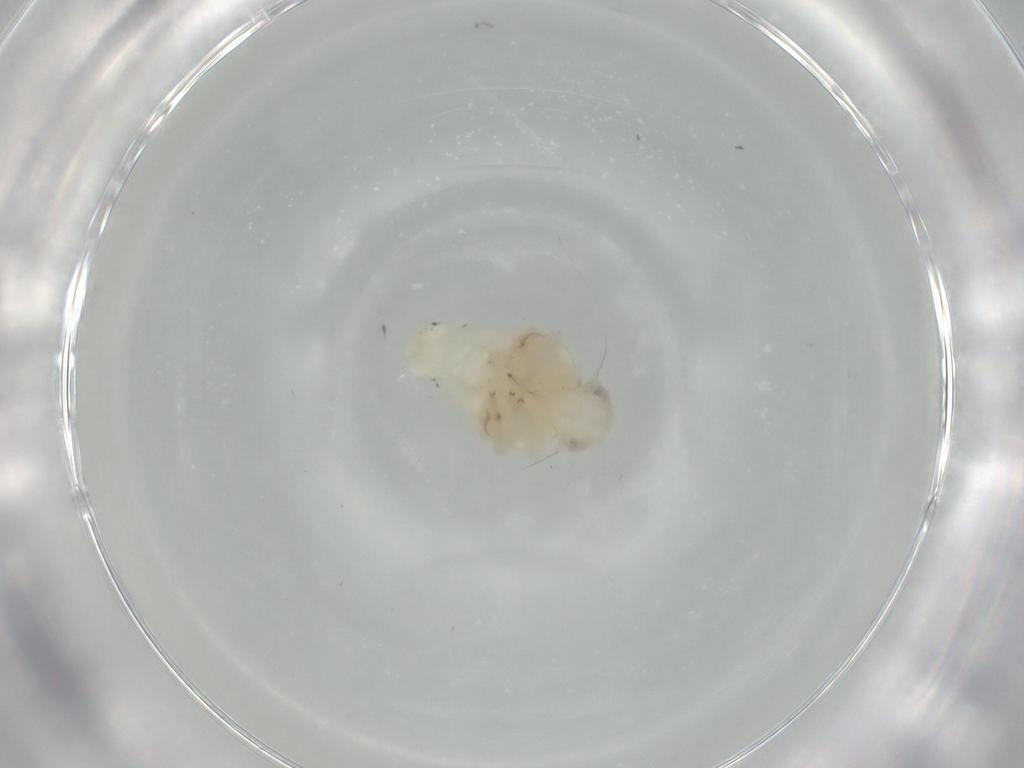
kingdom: Animalia
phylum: Arthropoda
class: Insecta
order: Hemiptera
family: Nogodinidae
